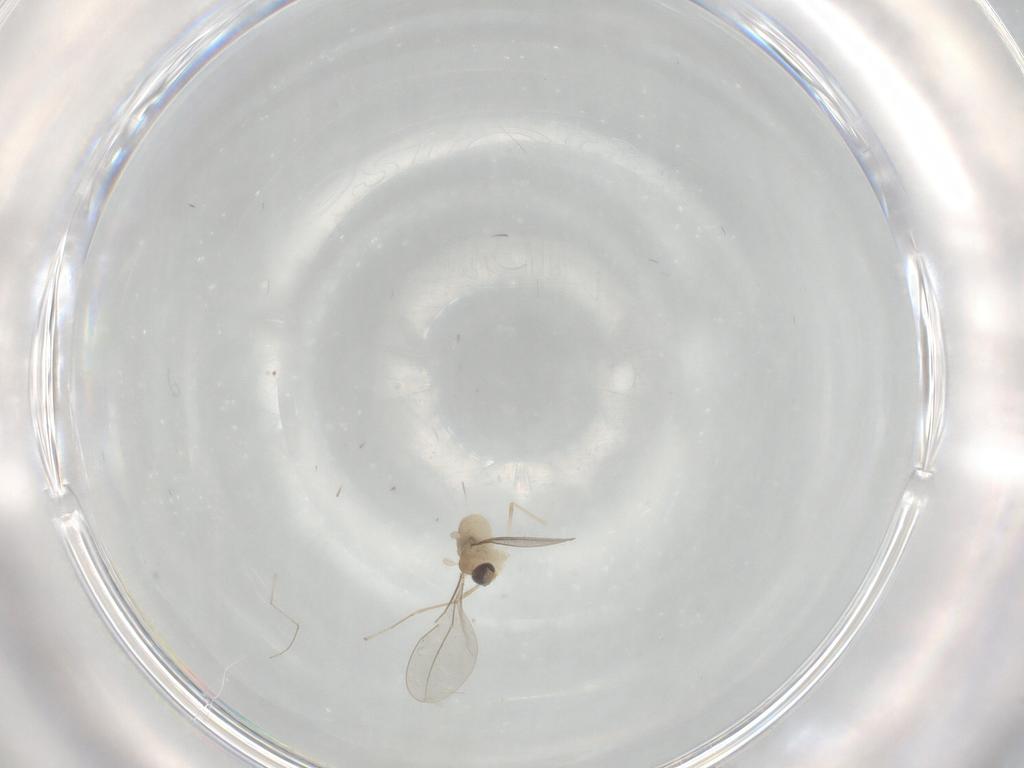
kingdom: Animalia
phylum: Arthropoda
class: Insecta
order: Diptera
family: Cecidomyiidae
